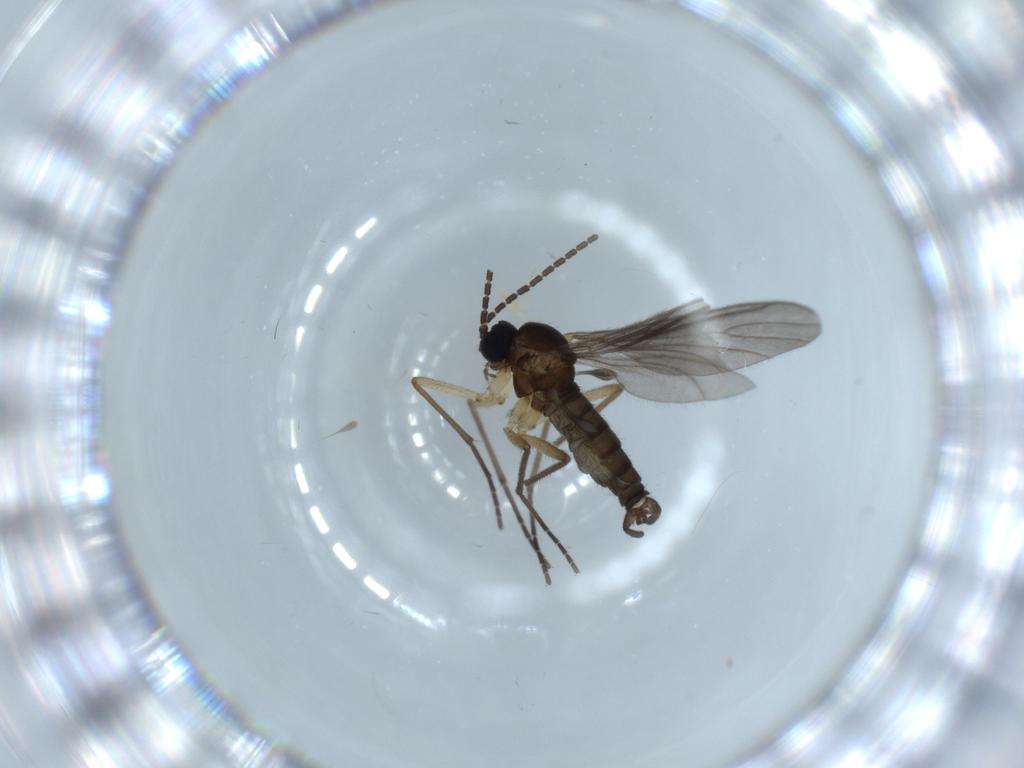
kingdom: Animalia
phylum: Arthropoda
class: Insecta
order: Diptera
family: Sciaridae
